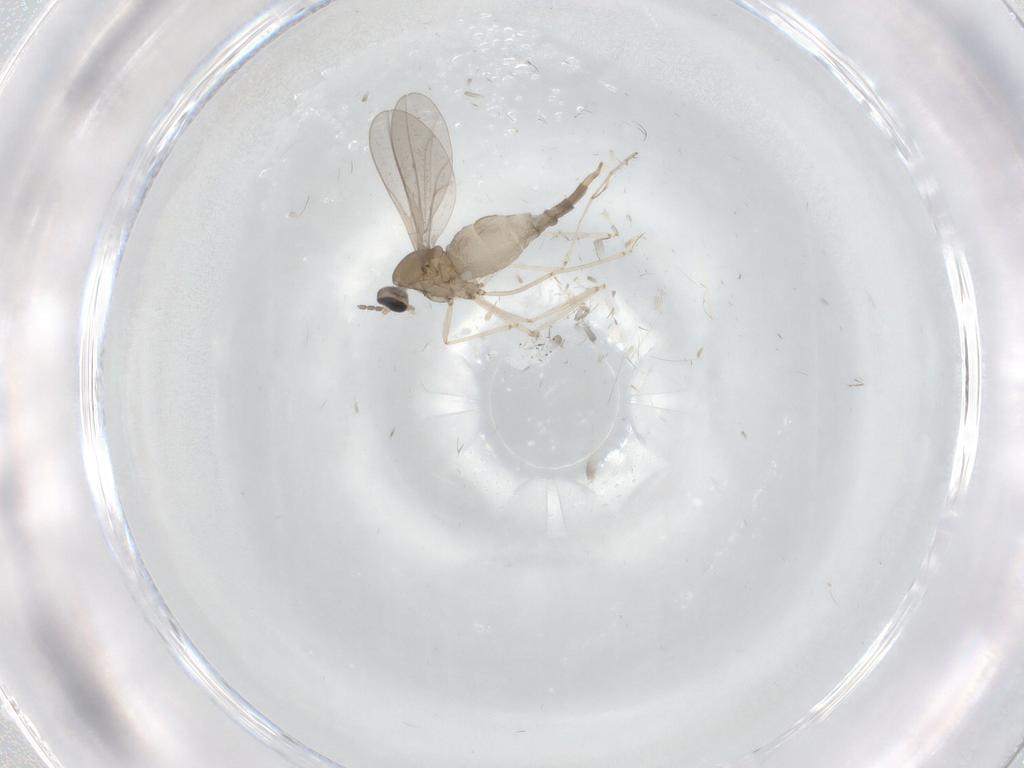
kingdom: Animalia
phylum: Arthropoda
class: Insecta
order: Diptera
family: Cecidomyiidae
